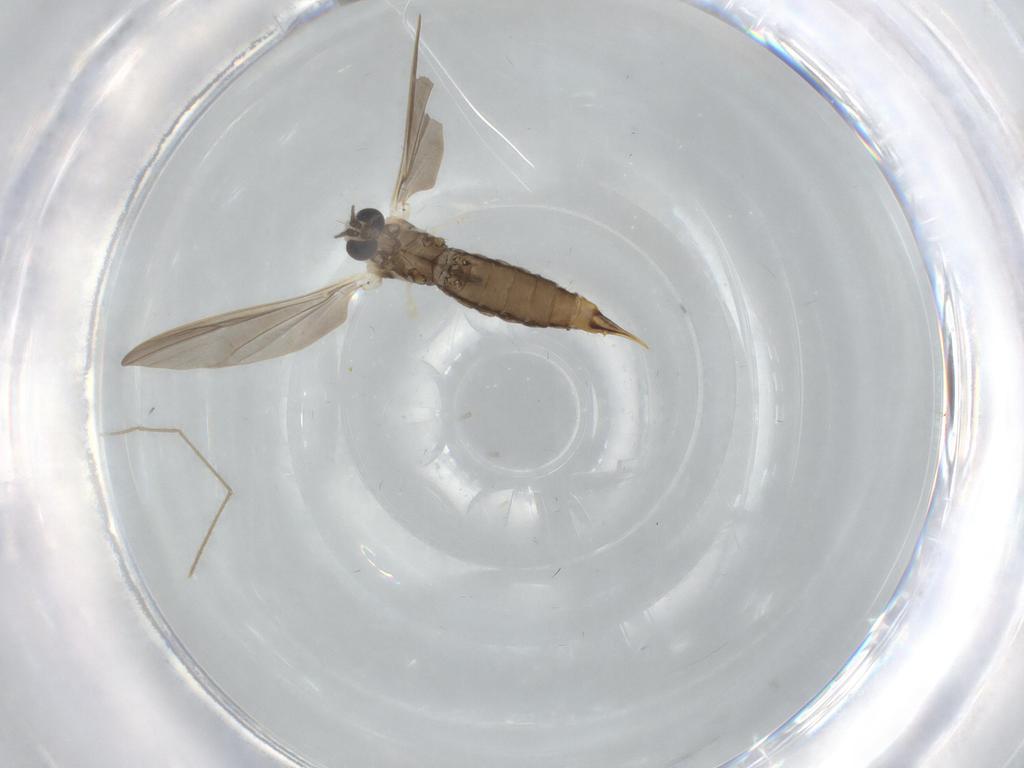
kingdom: Animalia
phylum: Arthropoda
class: Insecta
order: Diptera
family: Limoniidae
